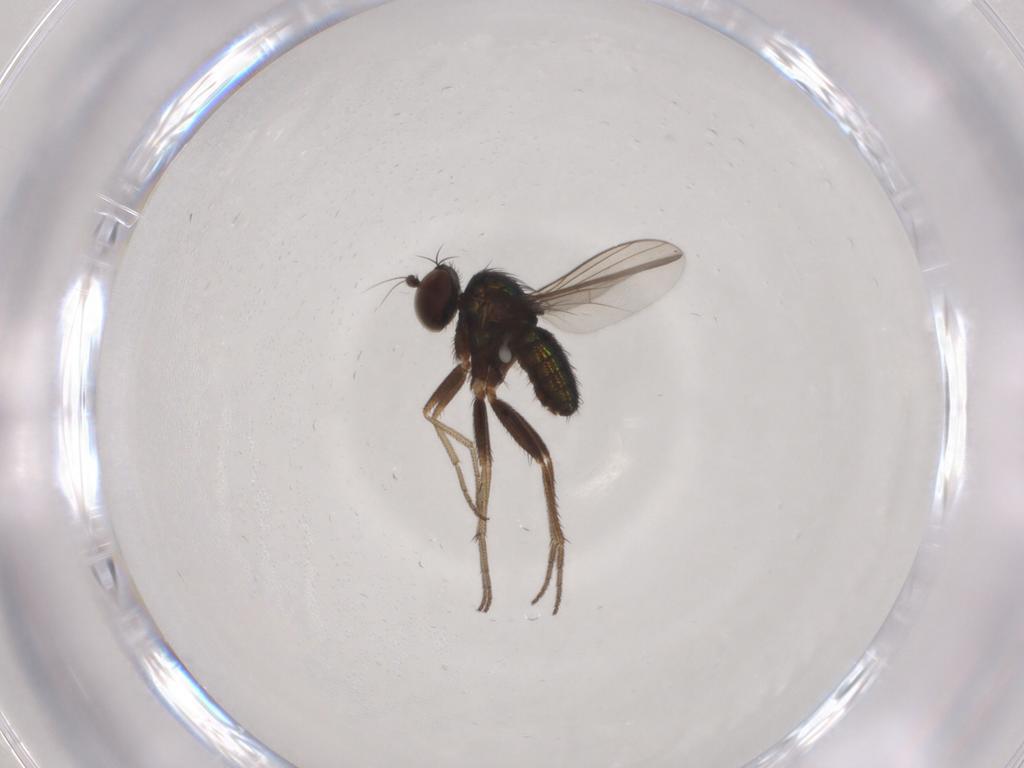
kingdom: Animalia
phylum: Arthropoda
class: Insecta
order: Diptera
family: Dolichopodidae
